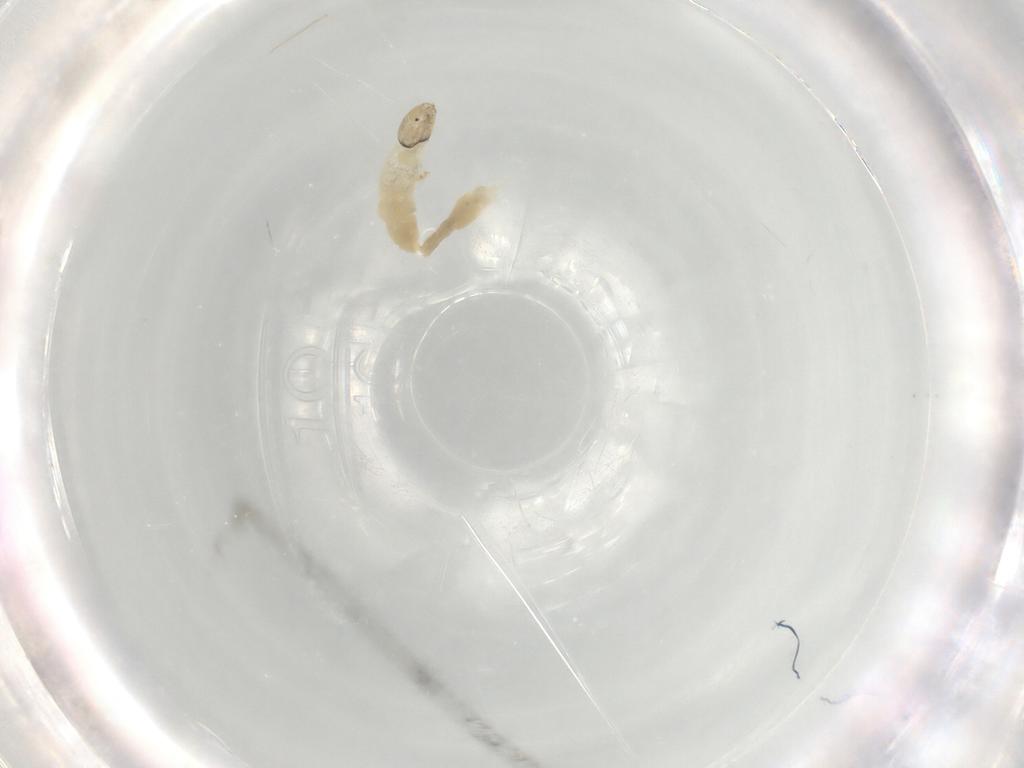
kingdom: Animalia
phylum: Arthropoda
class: Insecta
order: Diptera
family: Chironomidae
